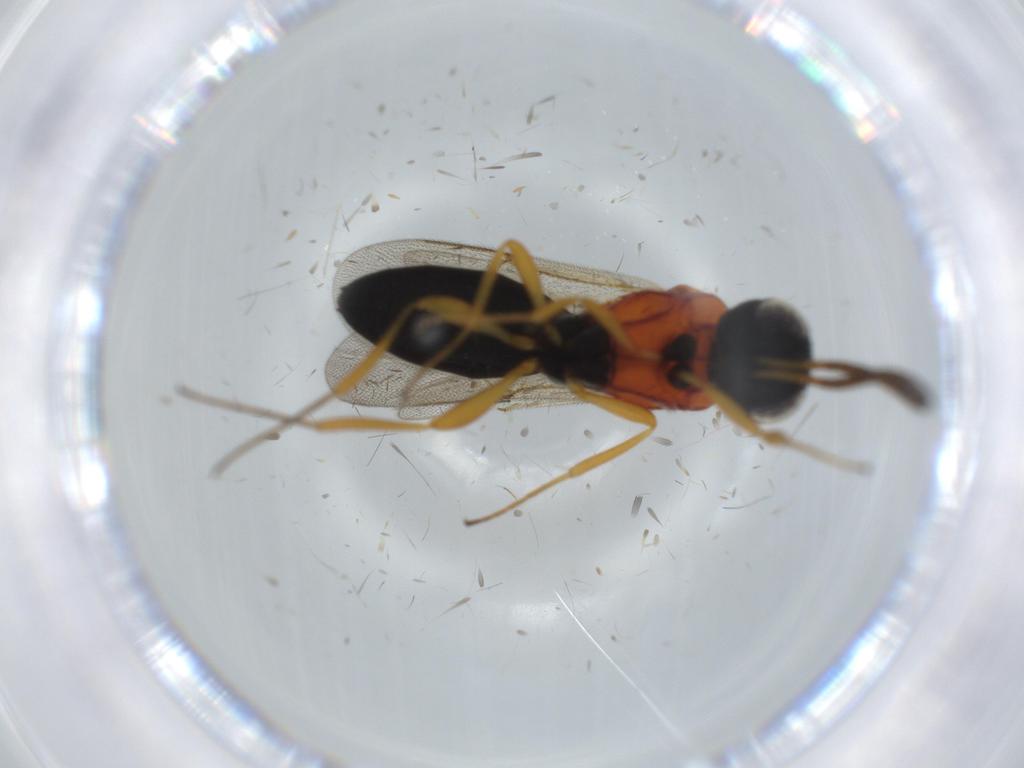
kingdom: Animalia
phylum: Arthropoda
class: Insecta
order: Hymenoptera
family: Scelionidae
